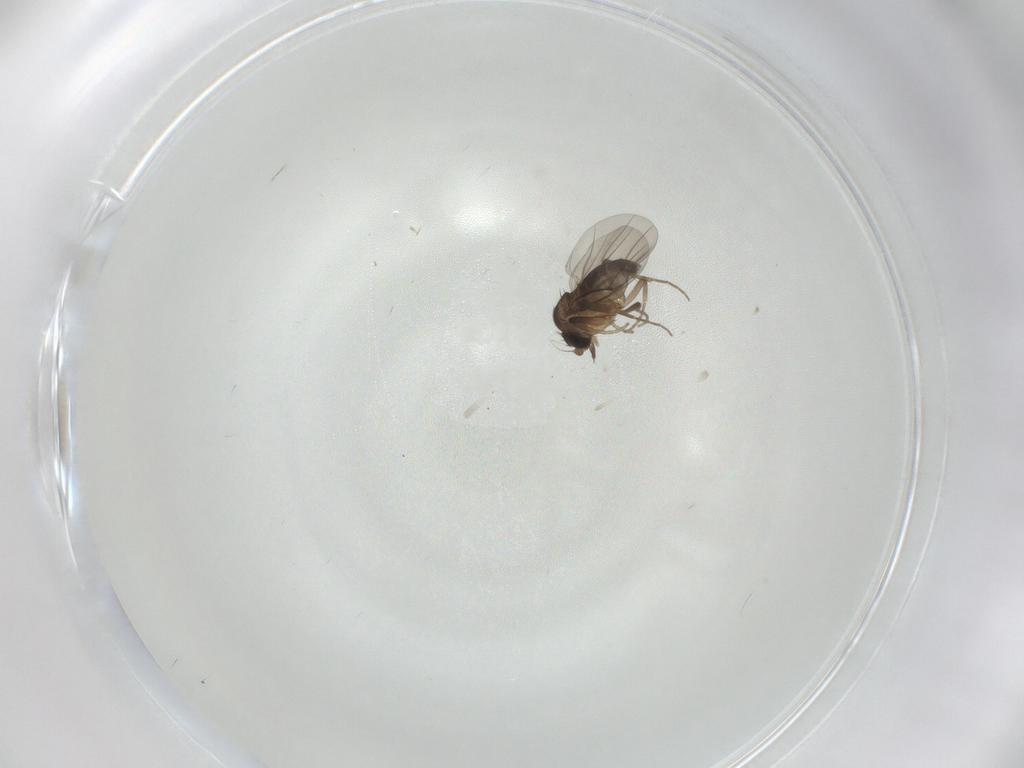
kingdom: Animalia
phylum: Arthropoda
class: Insecta
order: Diptera
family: Phoridae
